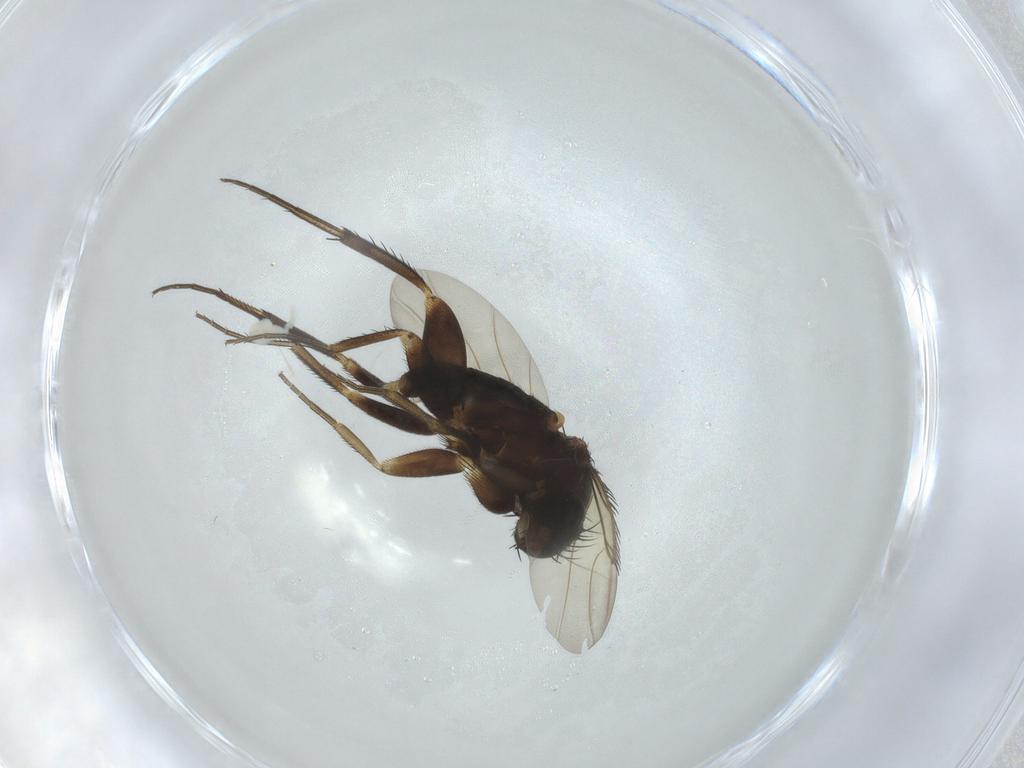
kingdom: Animalia
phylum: Arthropoda
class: Insecta
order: Diptera
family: Phoridae
